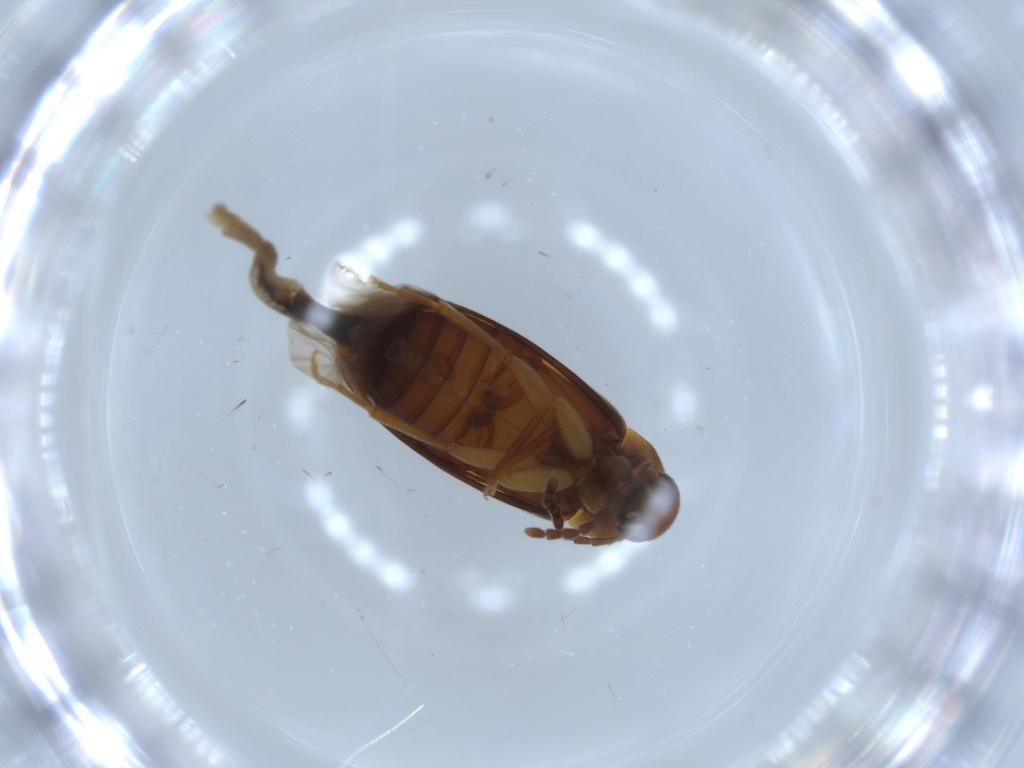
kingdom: Animalia
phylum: Arthropoda
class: Insecta
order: Coleoptera
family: Scraptiidae
